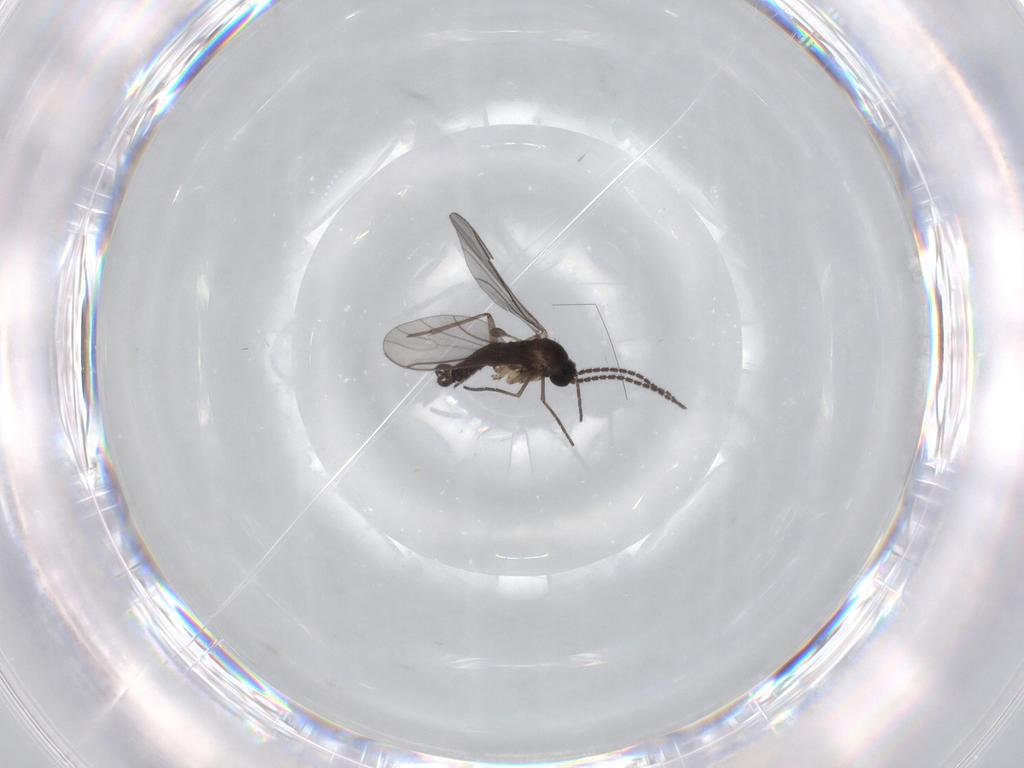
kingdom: Animalia
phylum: Arthropoda
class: Insecta
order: Diptera
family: Sciaridae
